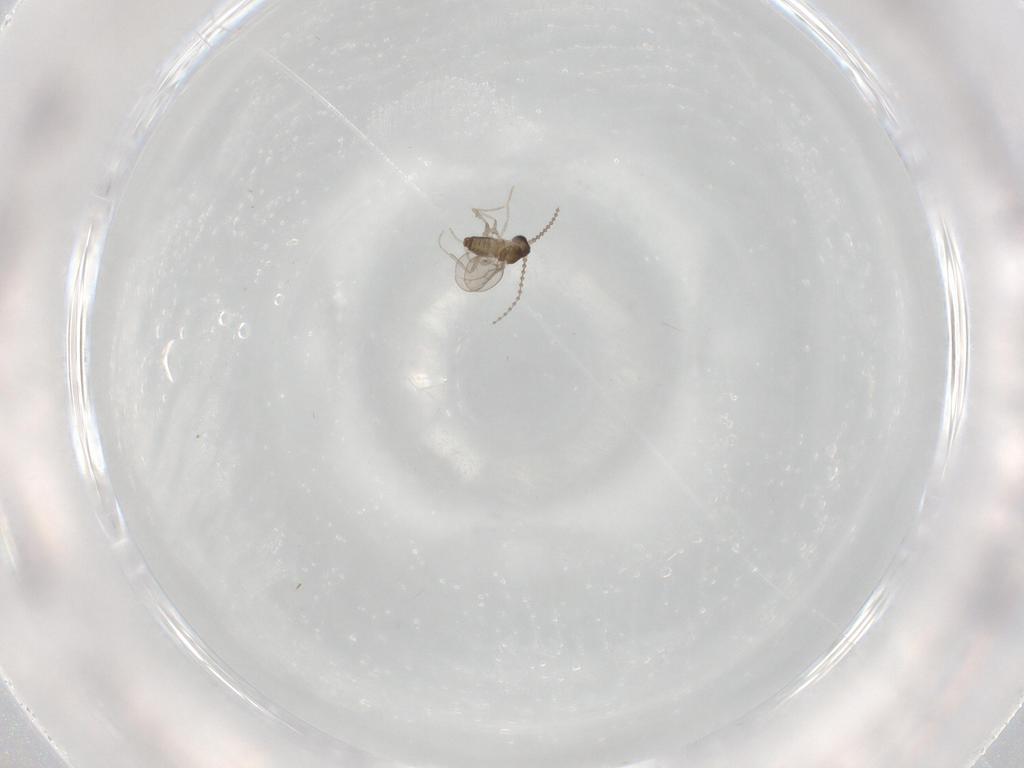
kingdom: Animalia
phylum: Arthropoda
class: Insecta
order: Diptera
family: Cecidomyiidae
